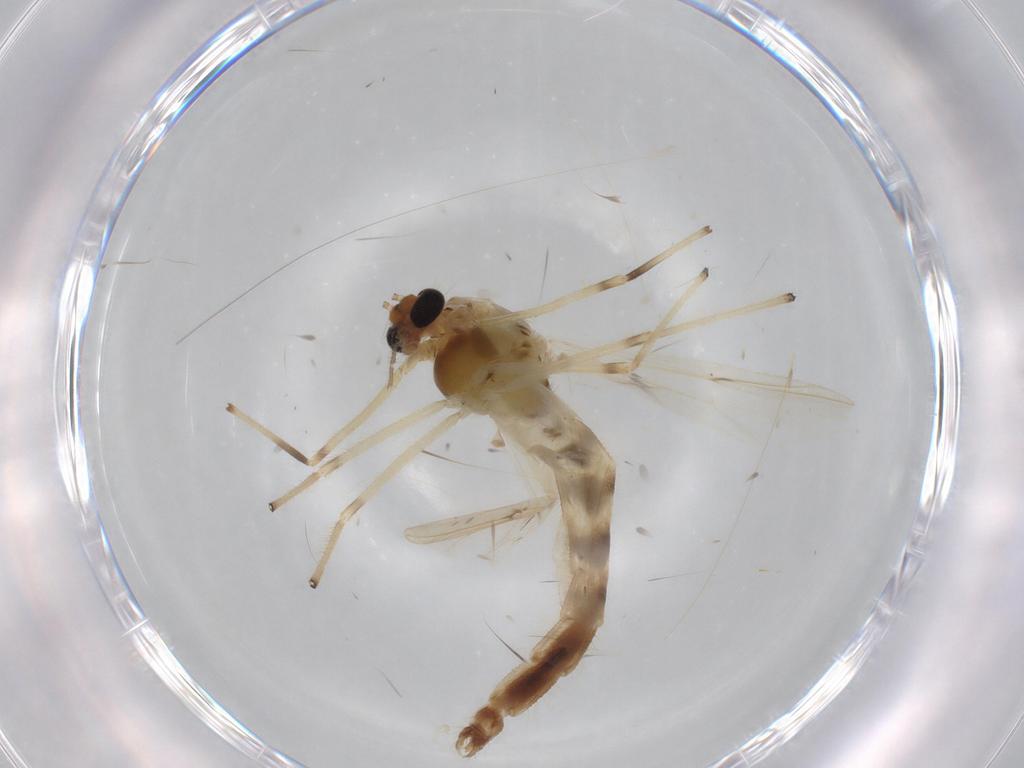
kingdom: Animalia
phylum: Arthropoda
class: Insecta
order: Diptera
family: Chironomidae
